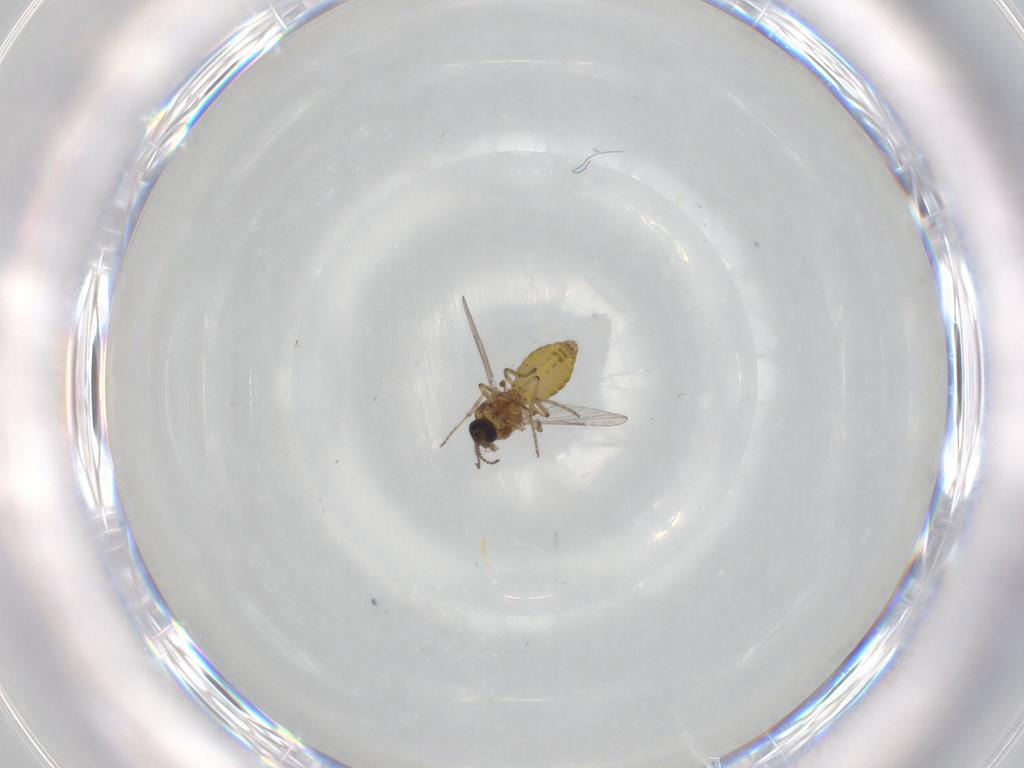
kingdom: Animalia
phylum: Arthropoda
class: Insecta
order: Diptera
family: Ceratopogonidae
